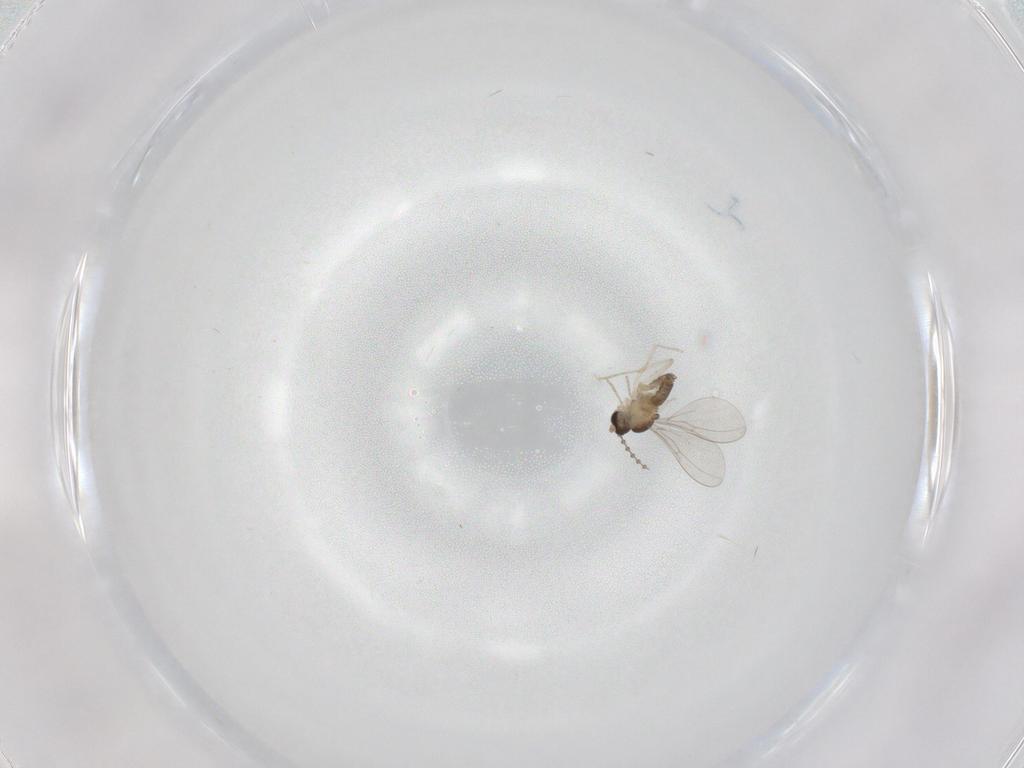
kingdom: Animalia
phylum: Arthropoda
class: Insecta
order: Diptera
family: Cecidomyiidae
